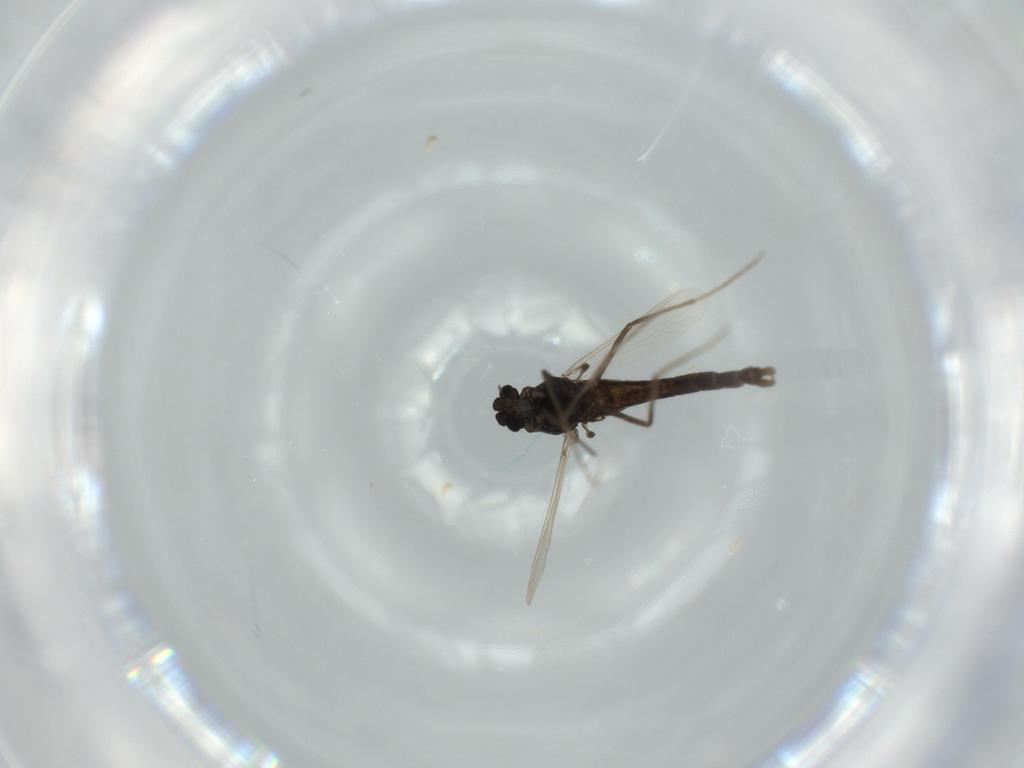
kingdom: Animalia
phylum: Arthropoda
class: Insecta
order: Diptera
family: Chironomidae
